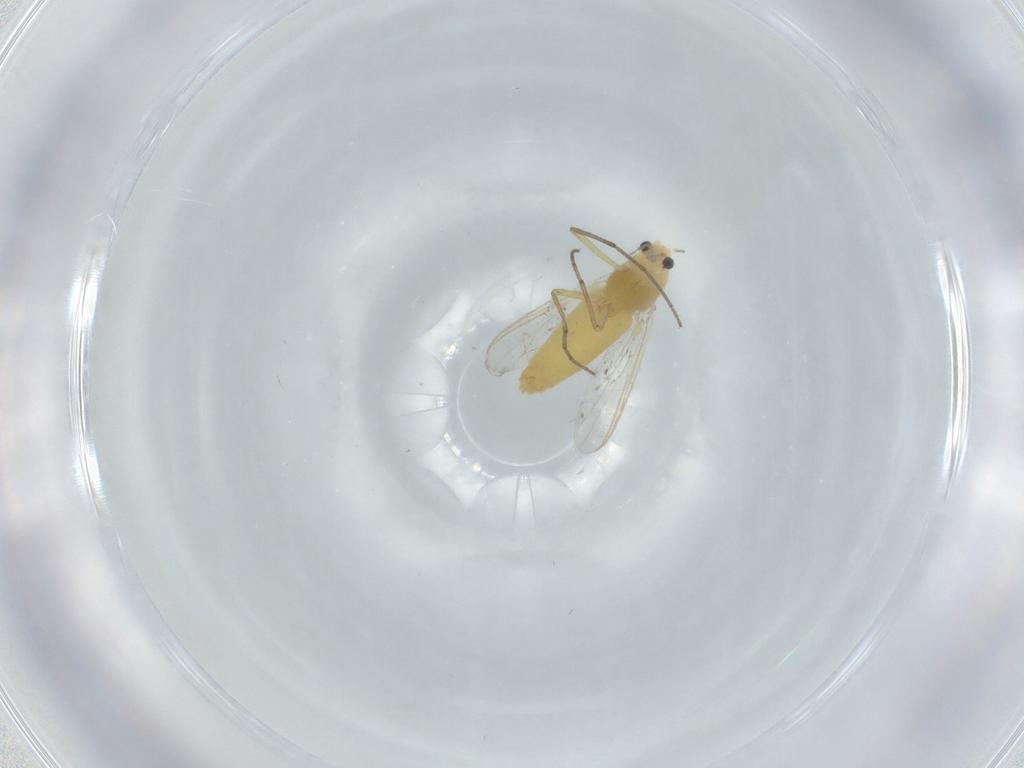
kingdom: Animalia
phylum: Arthropoda
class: Insecta
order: Diptera
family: Chironomidae
